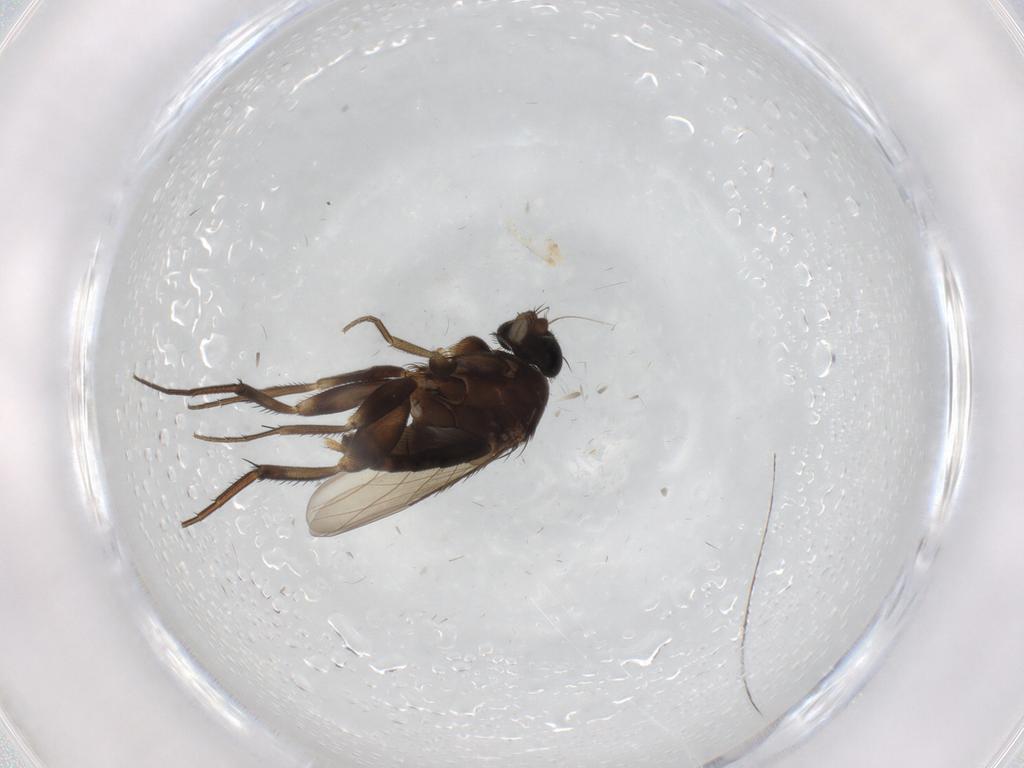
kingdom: Animalia
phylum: Arthropoda
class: Insecta
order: Diptera
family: Phoridae
